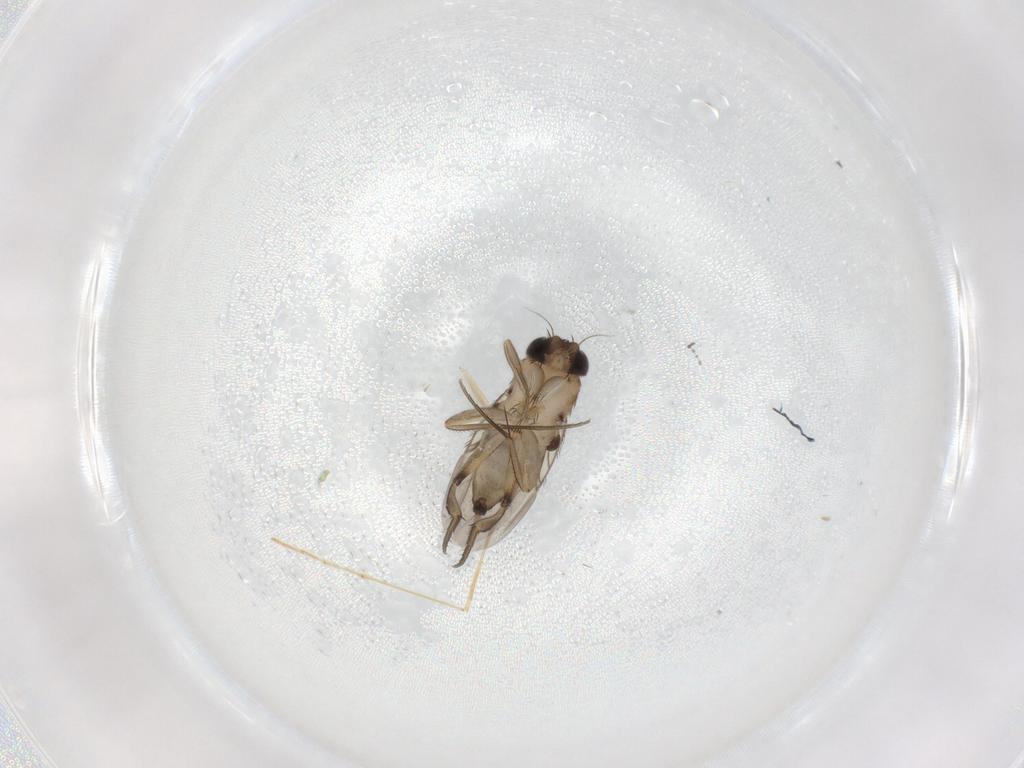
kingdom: Animalia
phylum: Arthropoda
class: Insecta
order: Diptera
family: Phoridae
